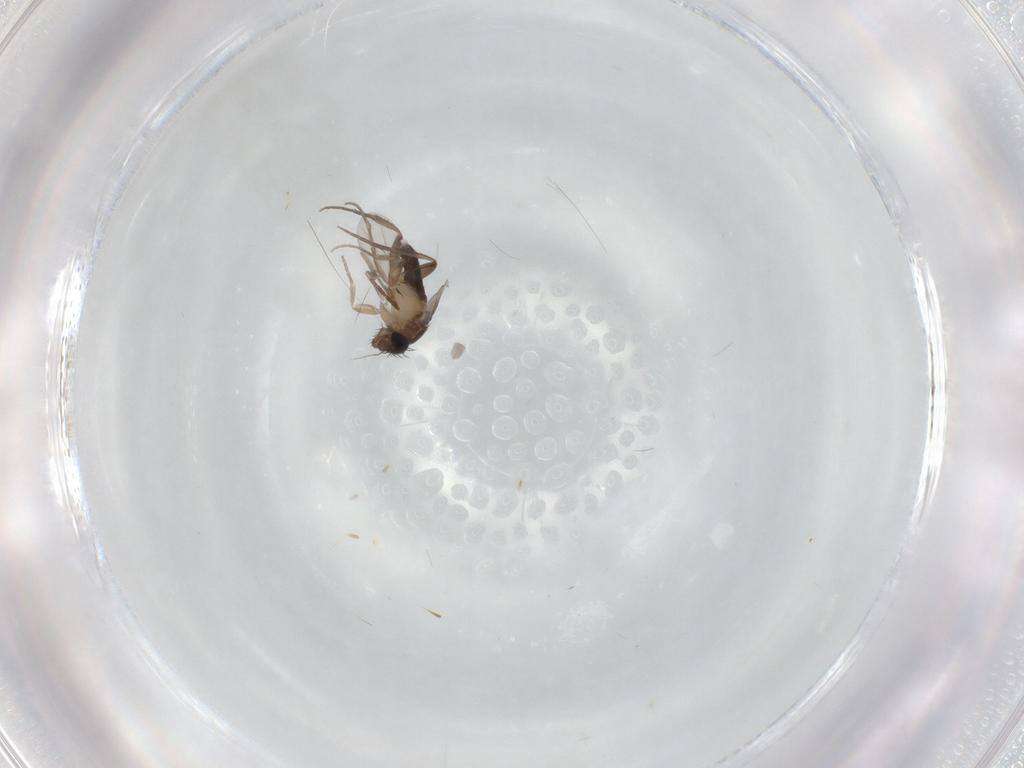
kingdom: Animalia
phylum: Arthropoda
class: Insecta
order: Diptera
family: Phoridae
